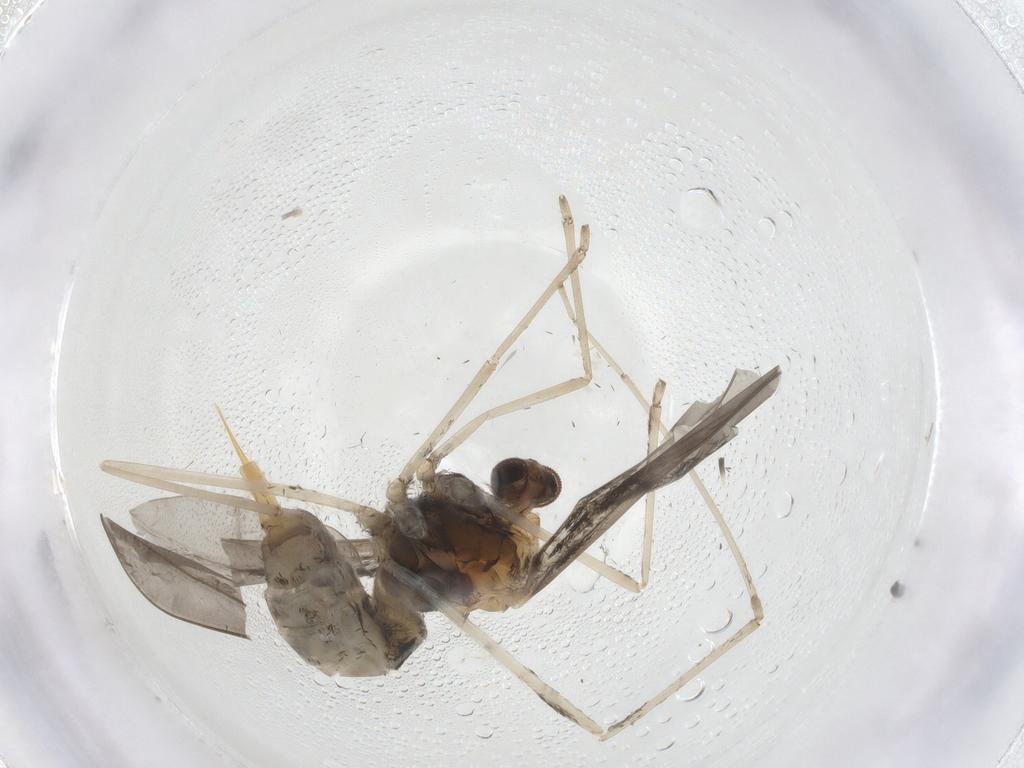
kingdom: Animalia
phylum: Arthropoda
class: Insecta
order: Diptera
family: Cecidomyiidae
